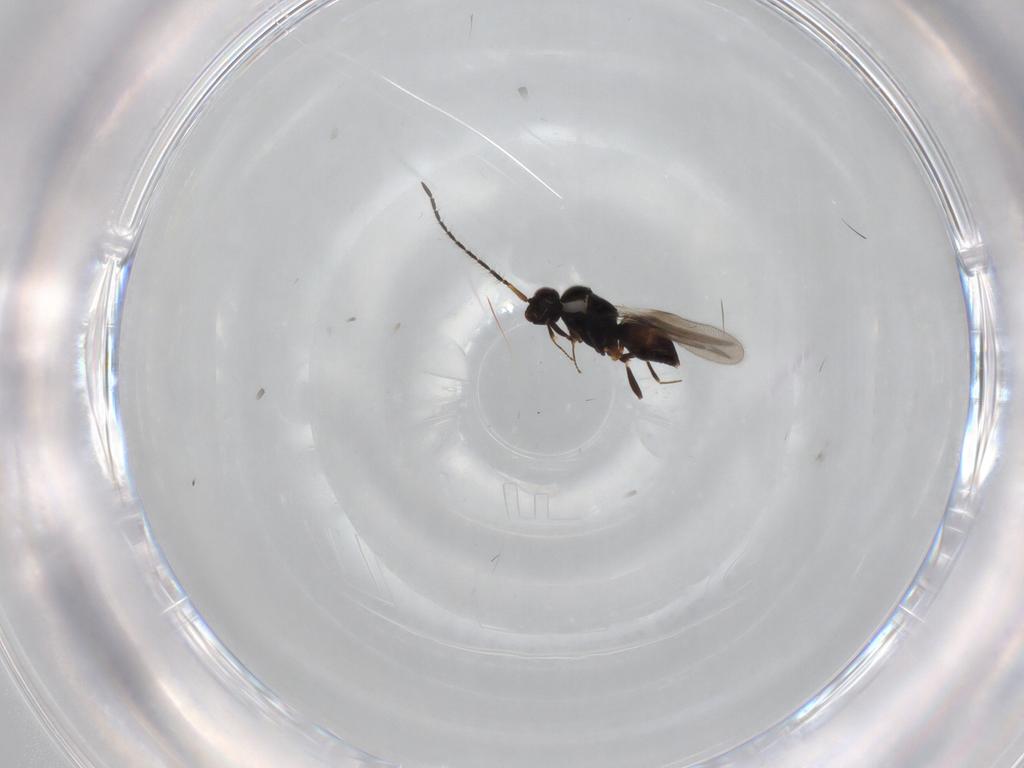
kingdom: Animalia
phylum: Arthropoda
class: Insecta
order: Hymenoptera
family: Ceraphronidae
